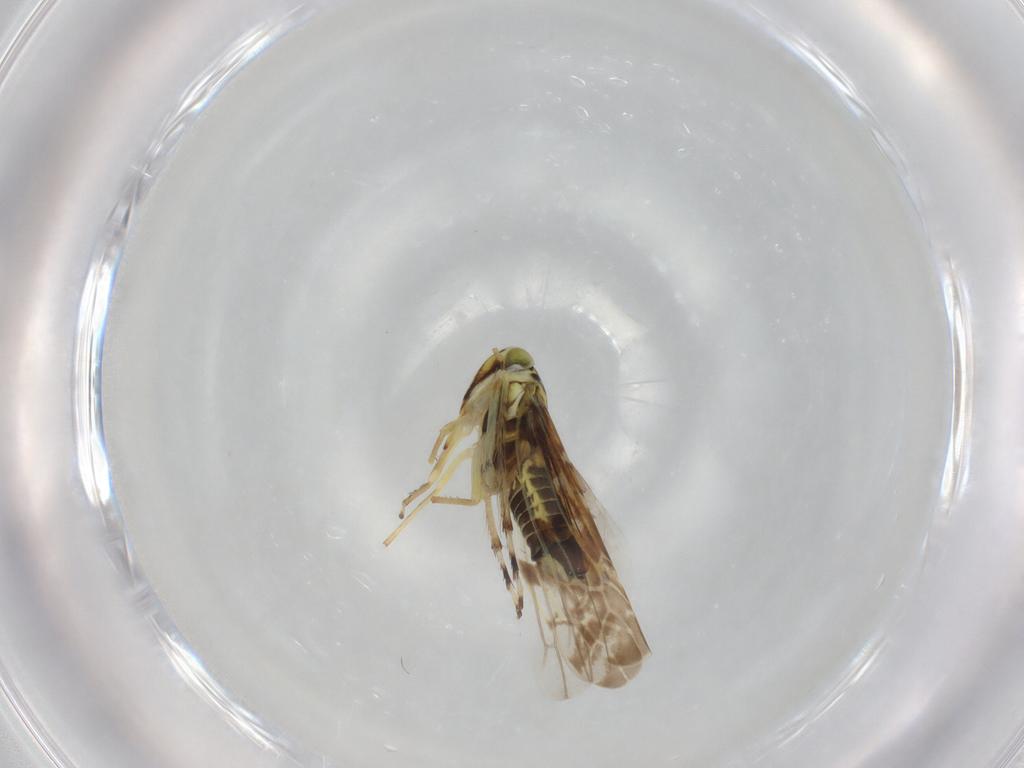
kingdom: Animalia
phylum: Arthropoda
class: Insecta
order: Hemiptera
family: Cicadellidae
